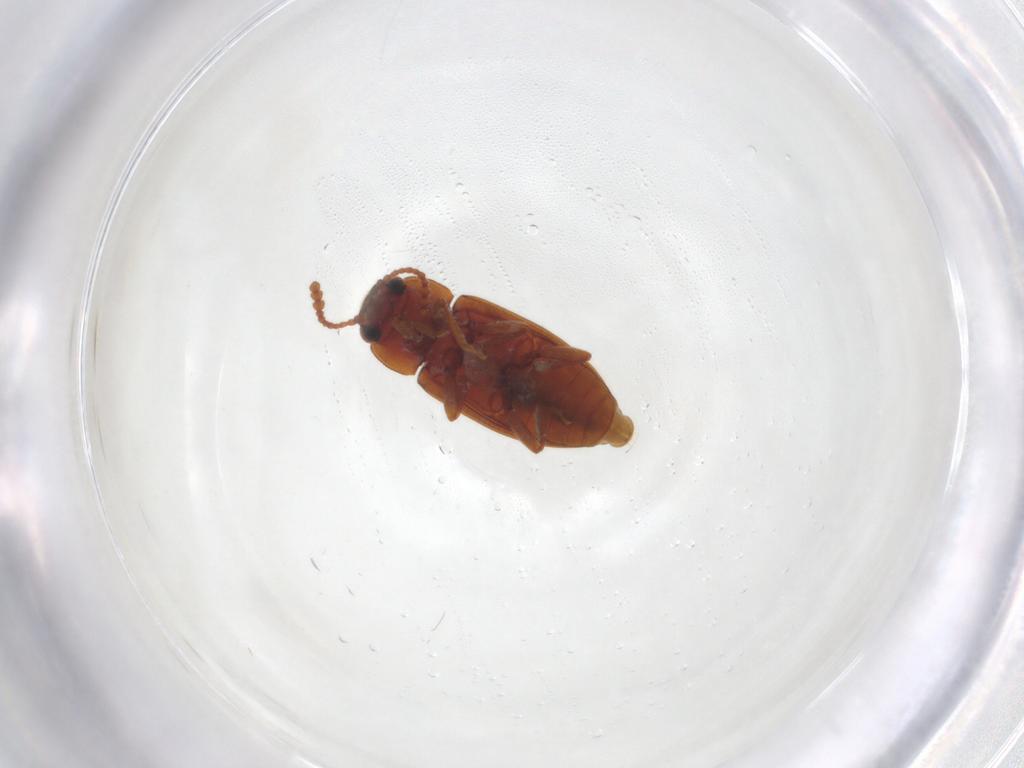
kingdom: Animalia
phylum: Arthropoda
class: Insecta
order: Coleoptera
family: Erotylidae
